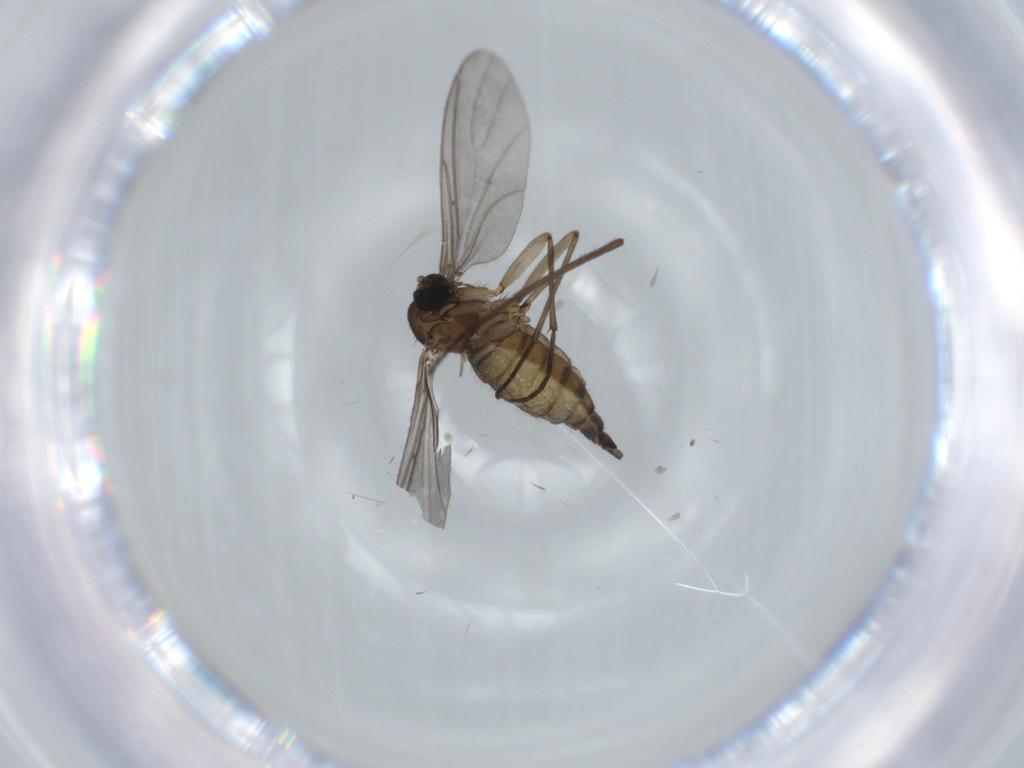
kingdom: Animalia
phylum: Arthropoda
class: Insecta
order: Diptera
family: Sciaridae
